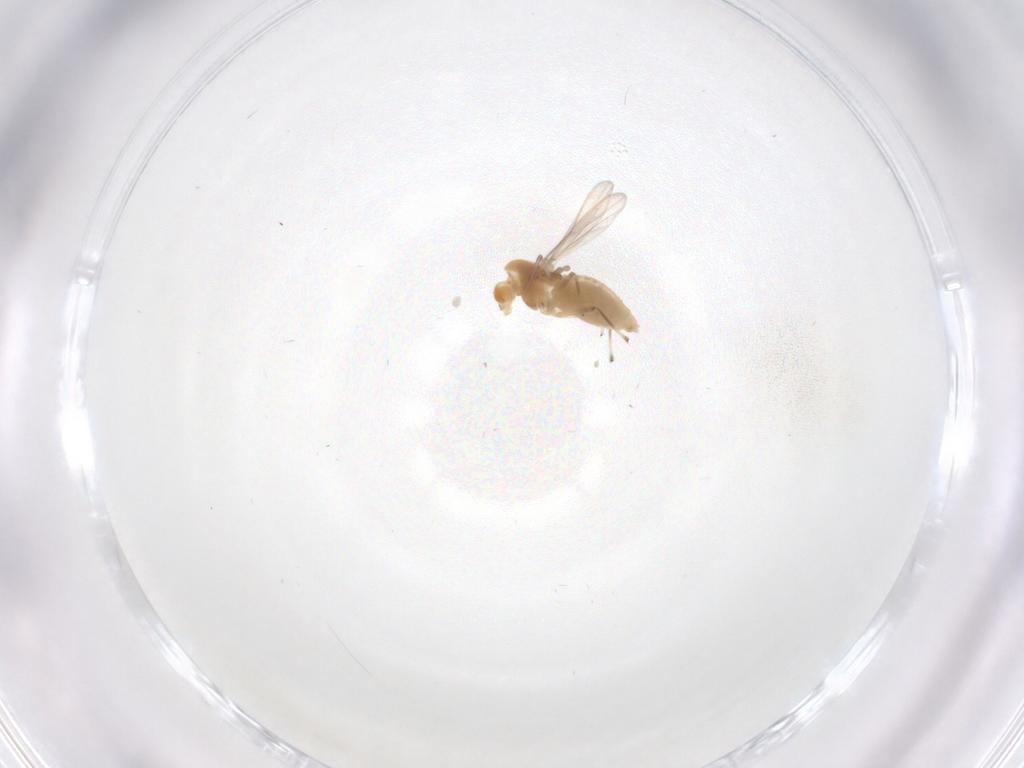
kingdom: Animalia
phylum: Arthropoda
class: Insecta
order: Diptera
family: Chironomidae
